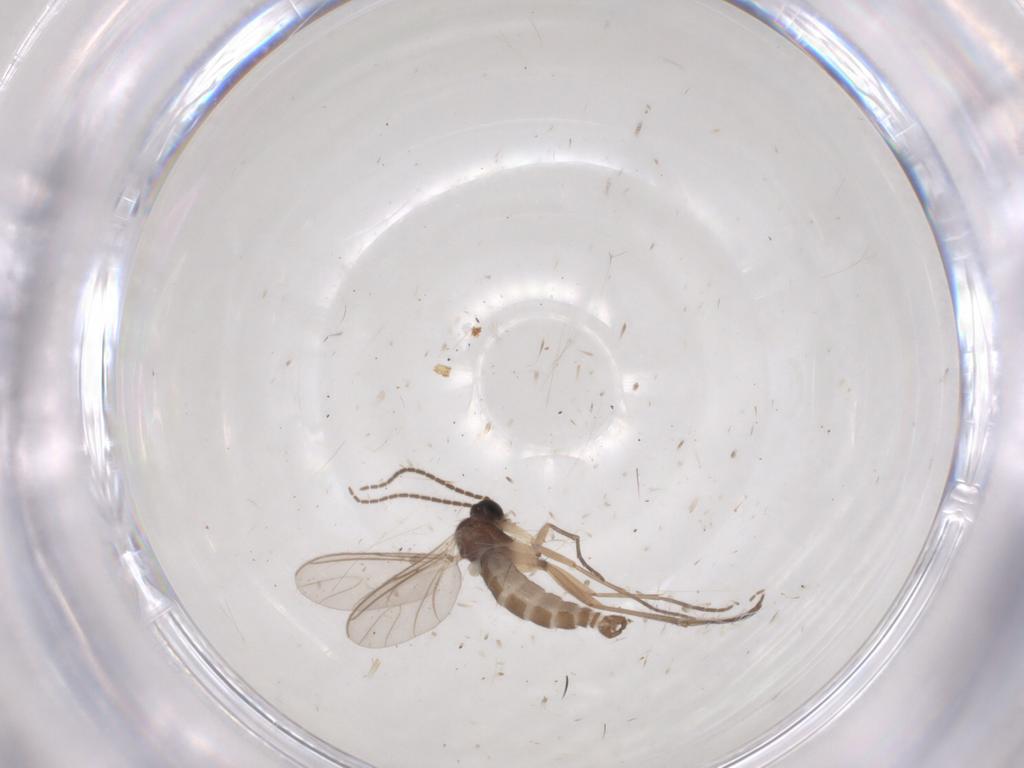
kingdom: Animalia
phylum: Arthropoda
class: Insecta
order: Diptera
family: Sciaridae
